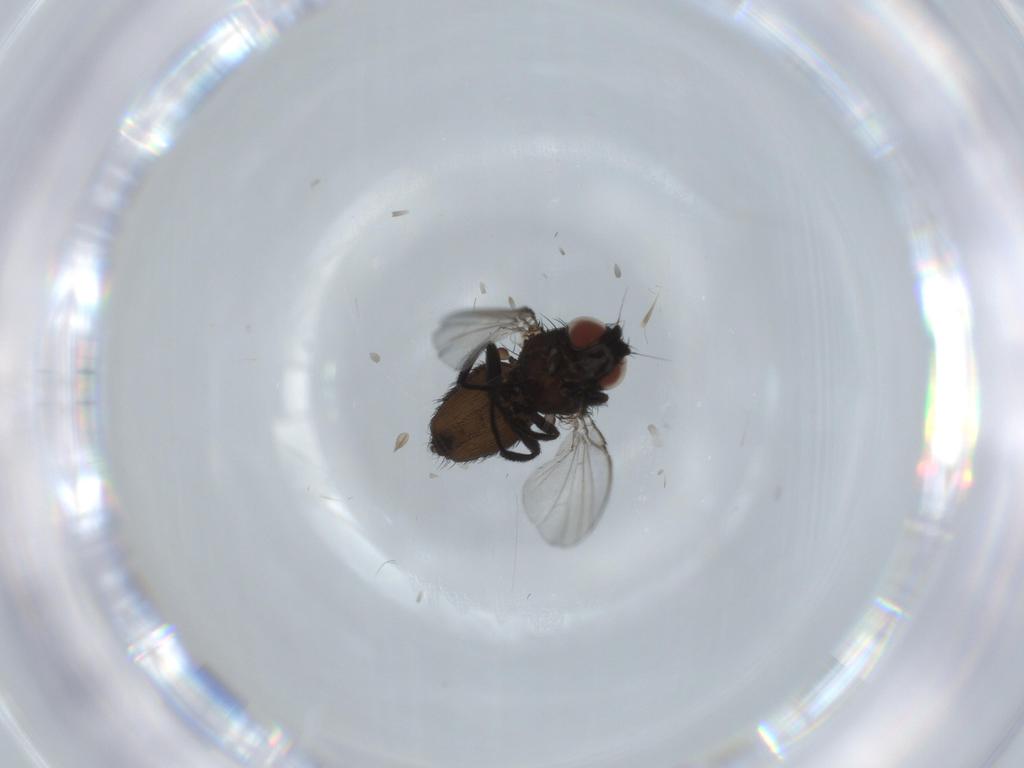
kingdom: Animalia
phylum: Arthropoda
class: Insecta
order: Diptera
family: Milichiidae
